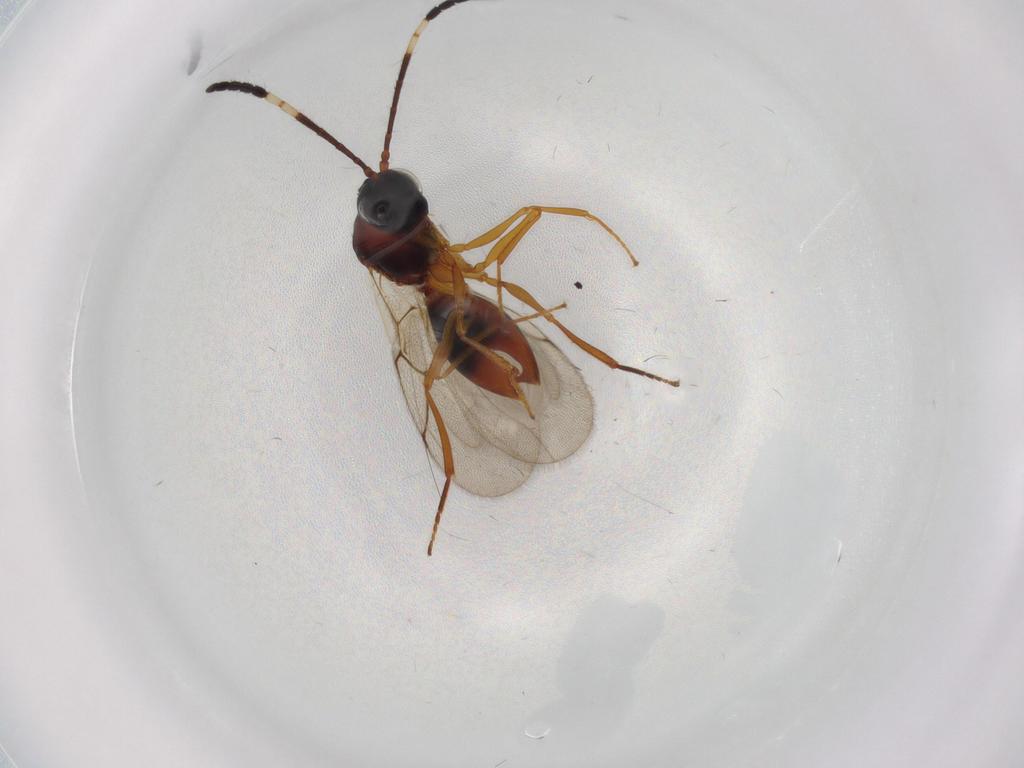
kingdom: Animalia
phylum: Arthropoda
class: Insecta
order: Hymenoptera
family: Figitidae
